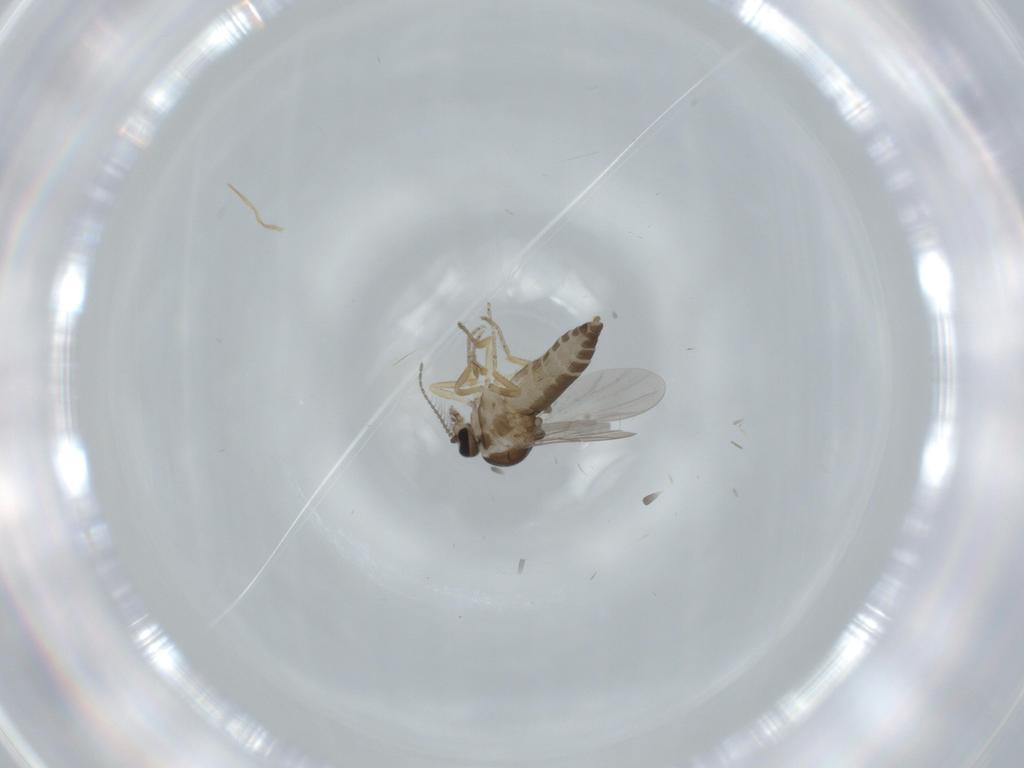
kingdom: Animalia
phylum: Arthropoda
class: Insecta
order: Diptera
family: Ceratopogonidae
